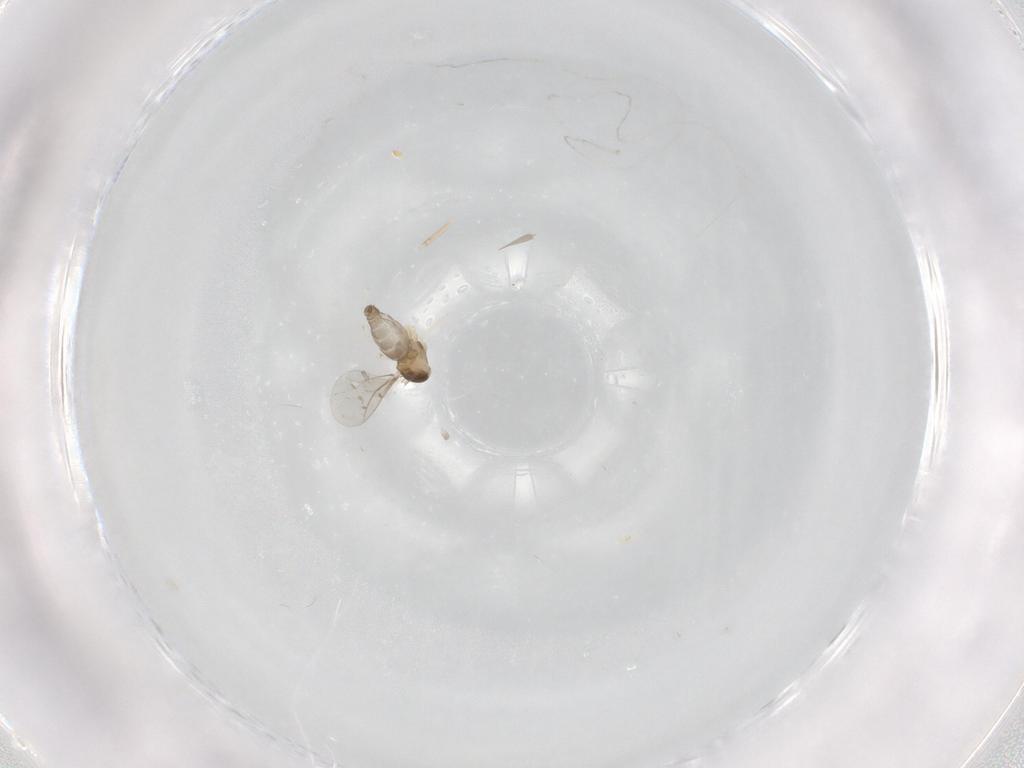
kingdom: Animalia
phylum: Arthropoda
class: Insecta
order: Diptera
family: Cecidomyiidae
